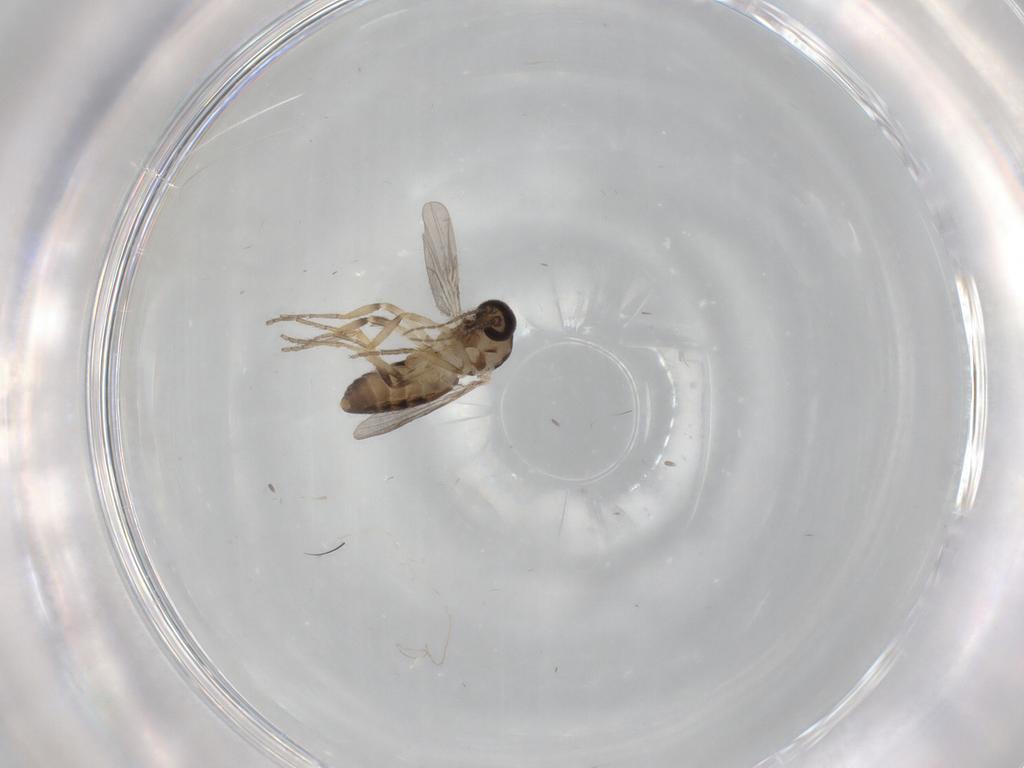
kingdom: Animalia
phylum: Arthropoda
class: Insecta
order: Diptera
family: Ceratopogonidae
